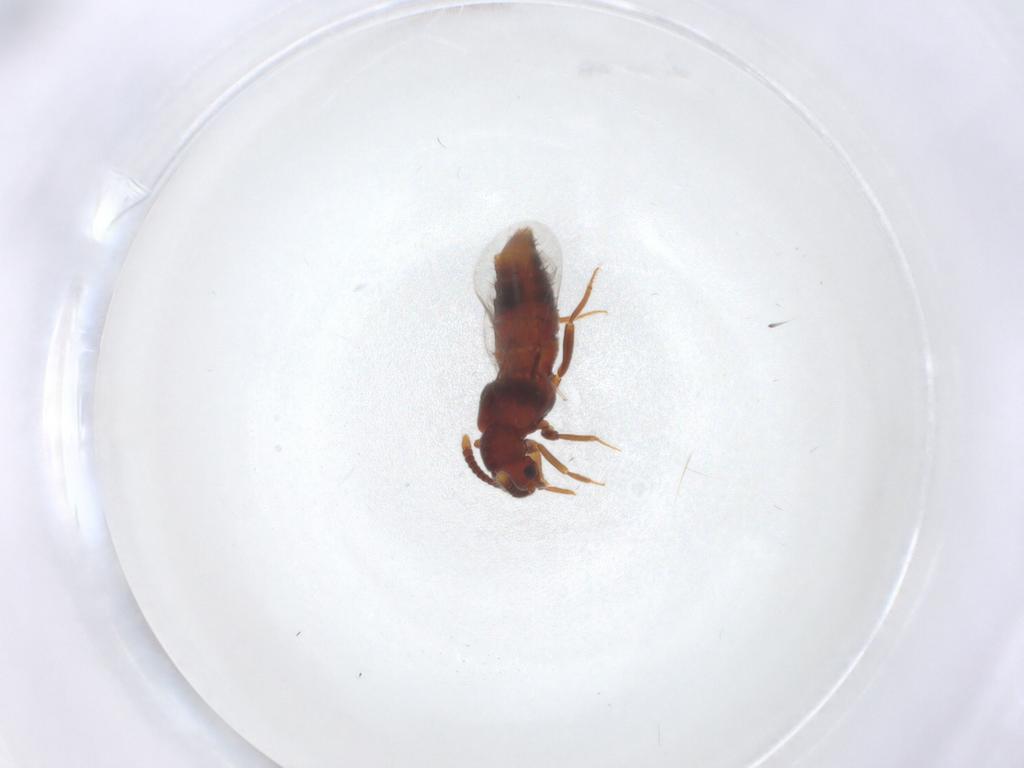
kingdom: Animalia
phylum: Arthropoda
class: Insecta
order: Coleoptera
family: Staphylinidae
